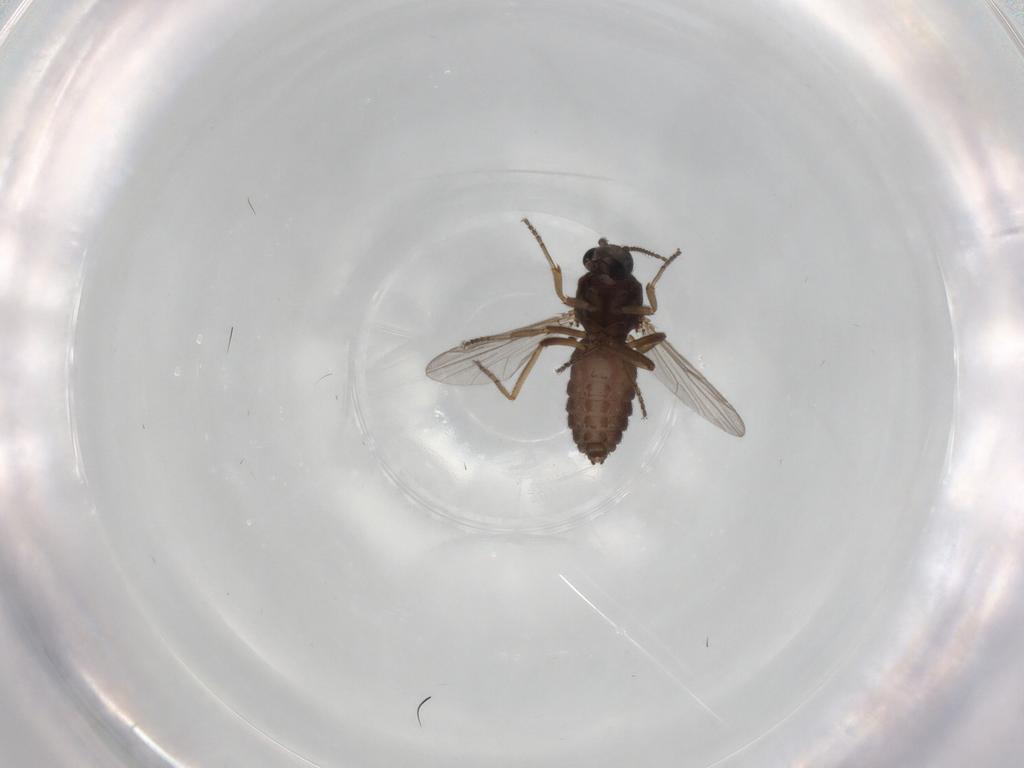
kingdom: Animalia
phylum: Arthropoda
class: Insecta
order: Diptera
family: Ceratopogonidae
